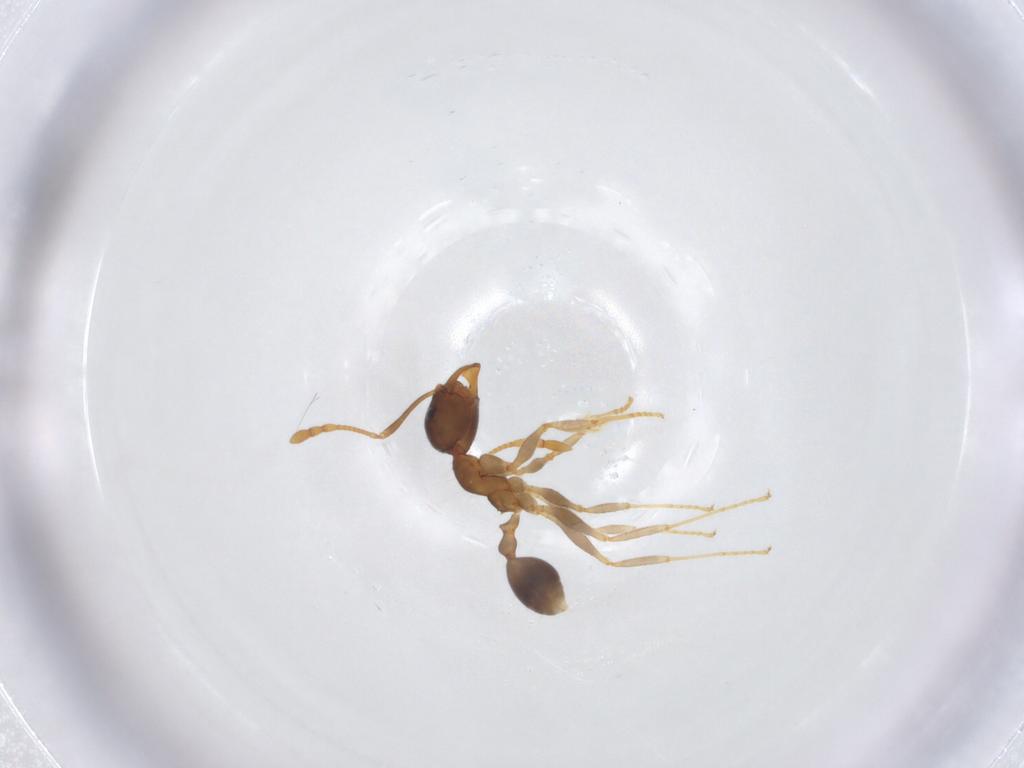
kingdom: Animalia
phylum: Arthropoda
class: Insecta
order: Hymenoptera
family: Formicidae
